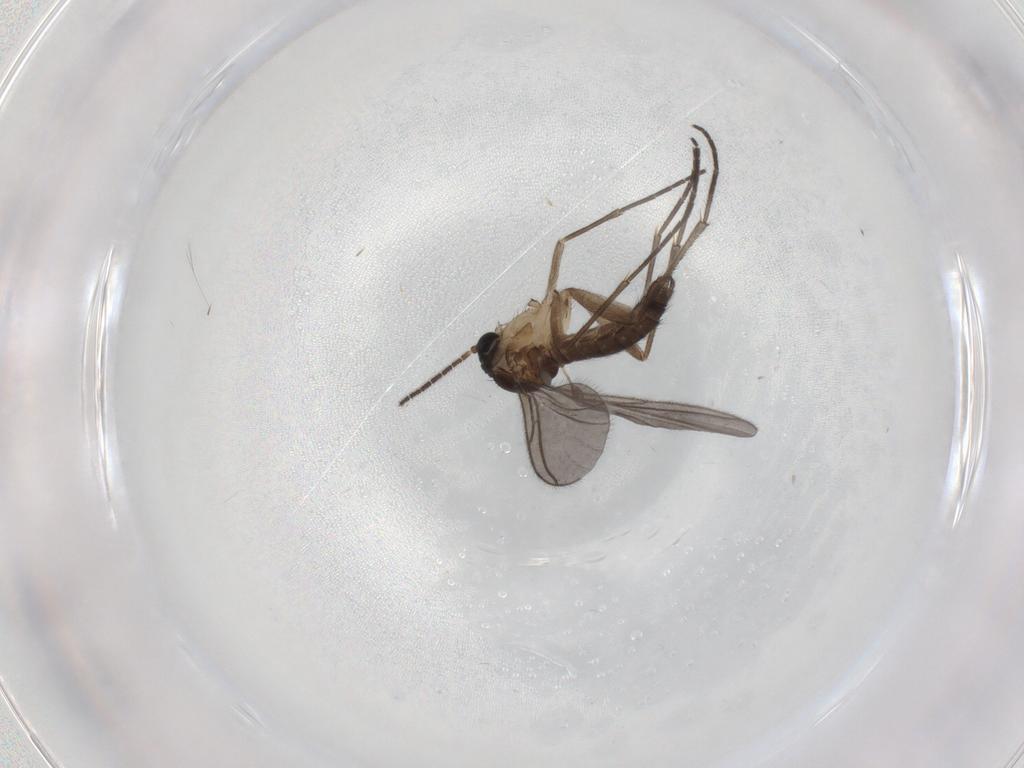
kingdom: Animalia
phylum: Arthropoda
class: Insecta
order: Diptera
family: Sciaridae
